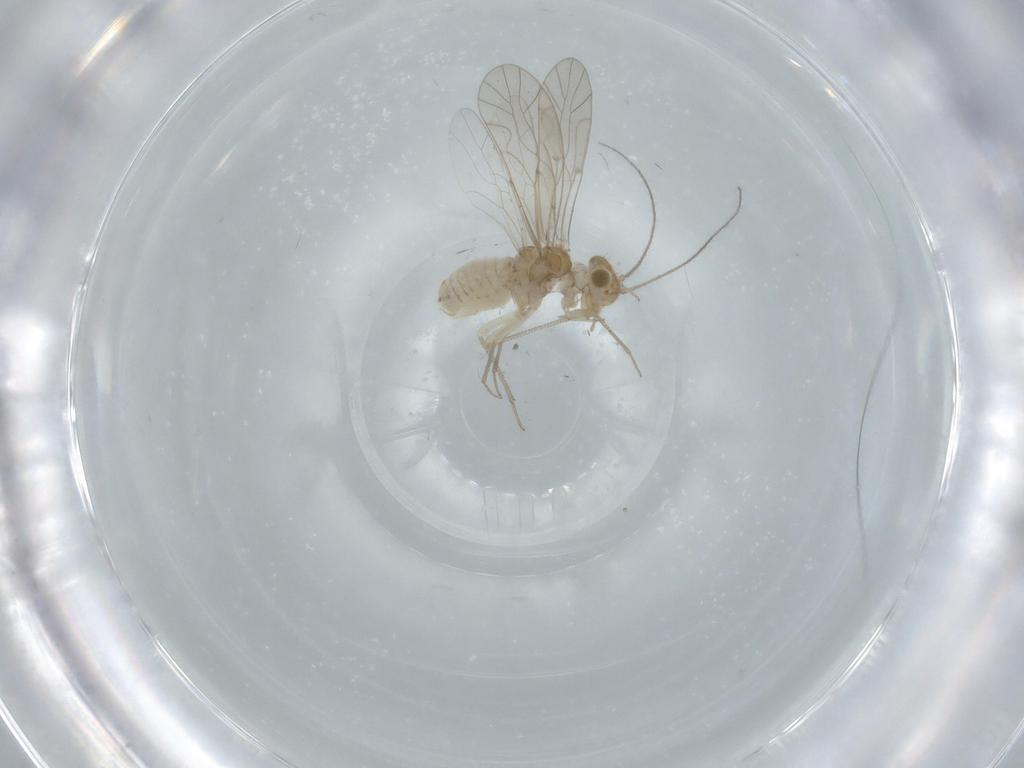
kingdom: Animalia
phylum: Arthropoda
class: Insecta
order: Psocodea
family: Lachesillidae
